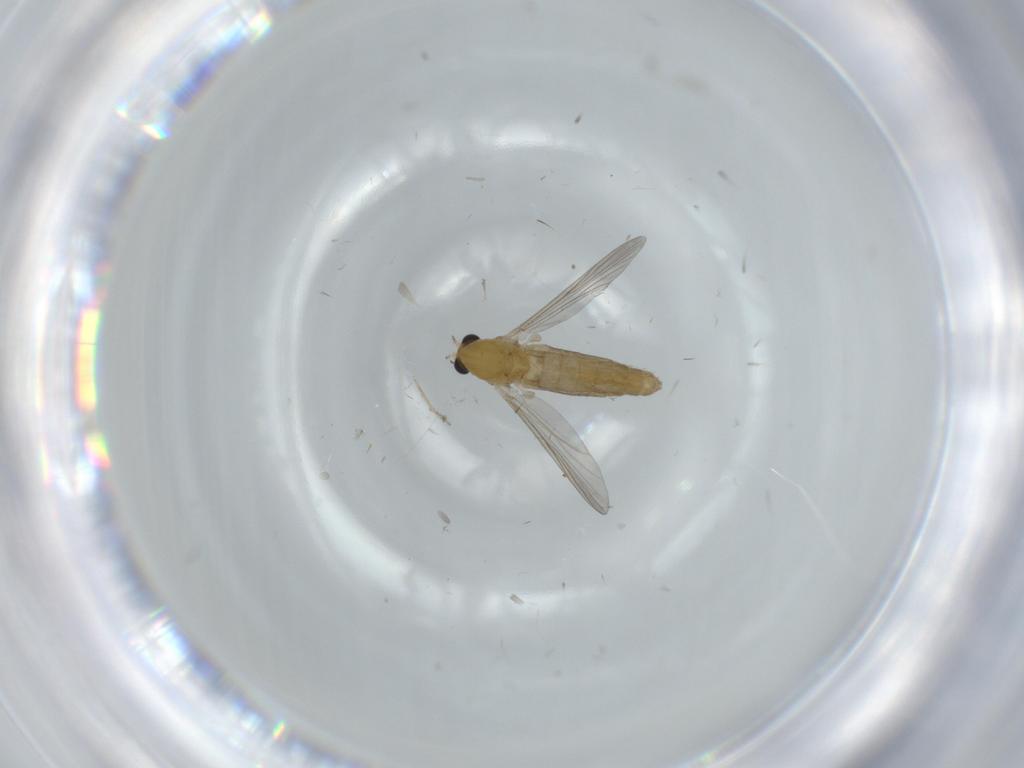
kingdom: Animalia
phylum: Arthropoda
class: Insecta
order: Diptera
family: Chironomidae
